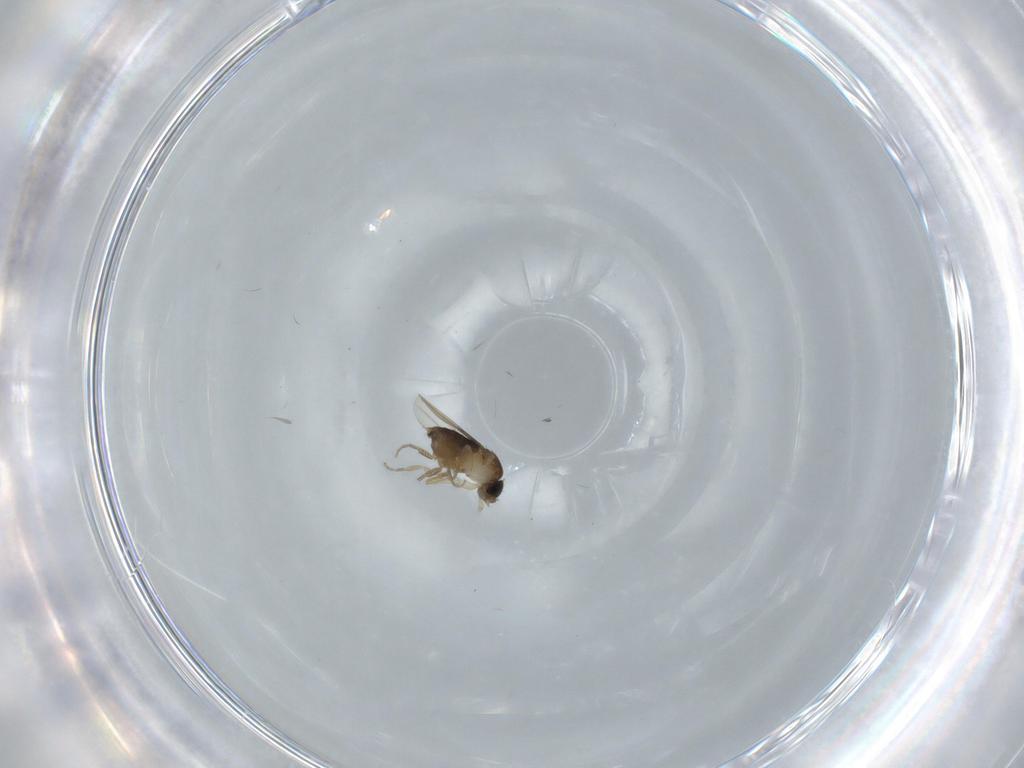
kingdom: Animalia
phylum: Arthropoda
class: Insecta
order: Diptera
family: Phoridae
